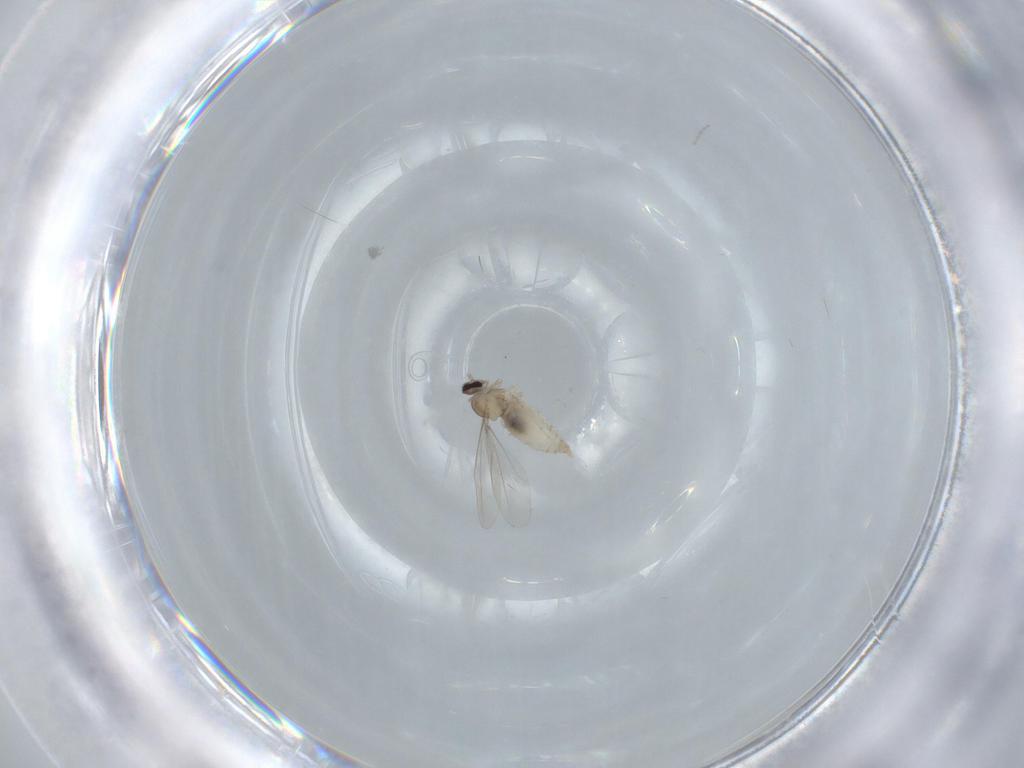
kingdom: Animalia
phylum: Arthropoda
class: Insecta
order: Diptera
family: Cecidomyiidae
